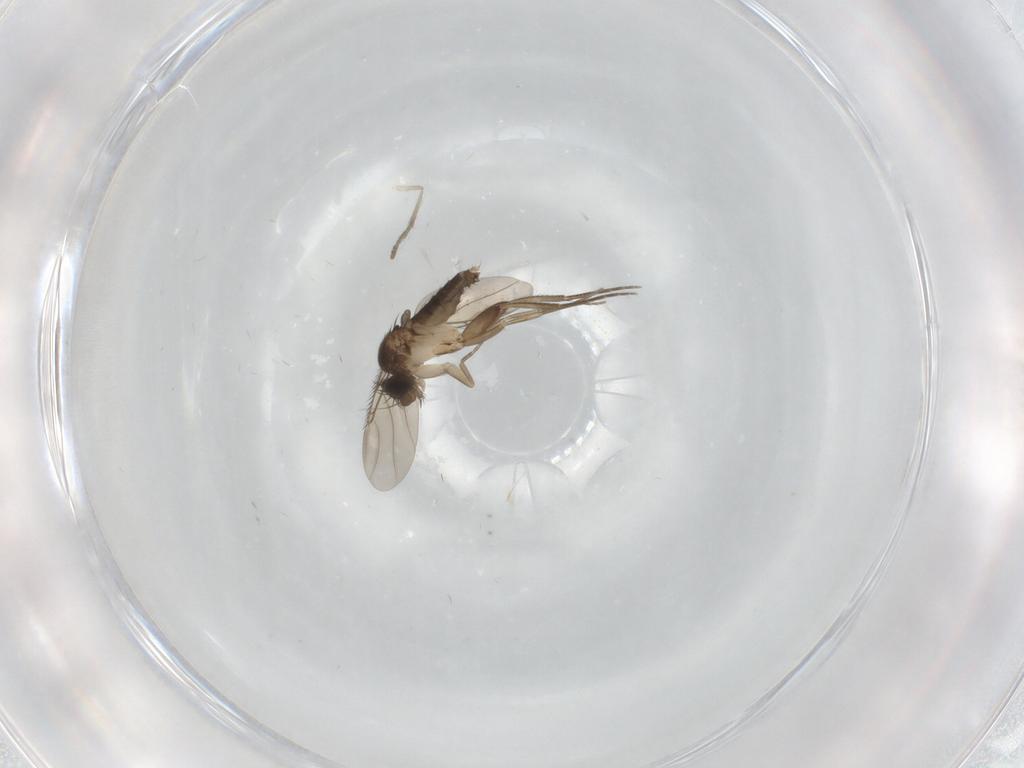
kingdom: Animalia
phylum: Arthropoda
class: Insecta
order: Diptera
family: Phoridae
